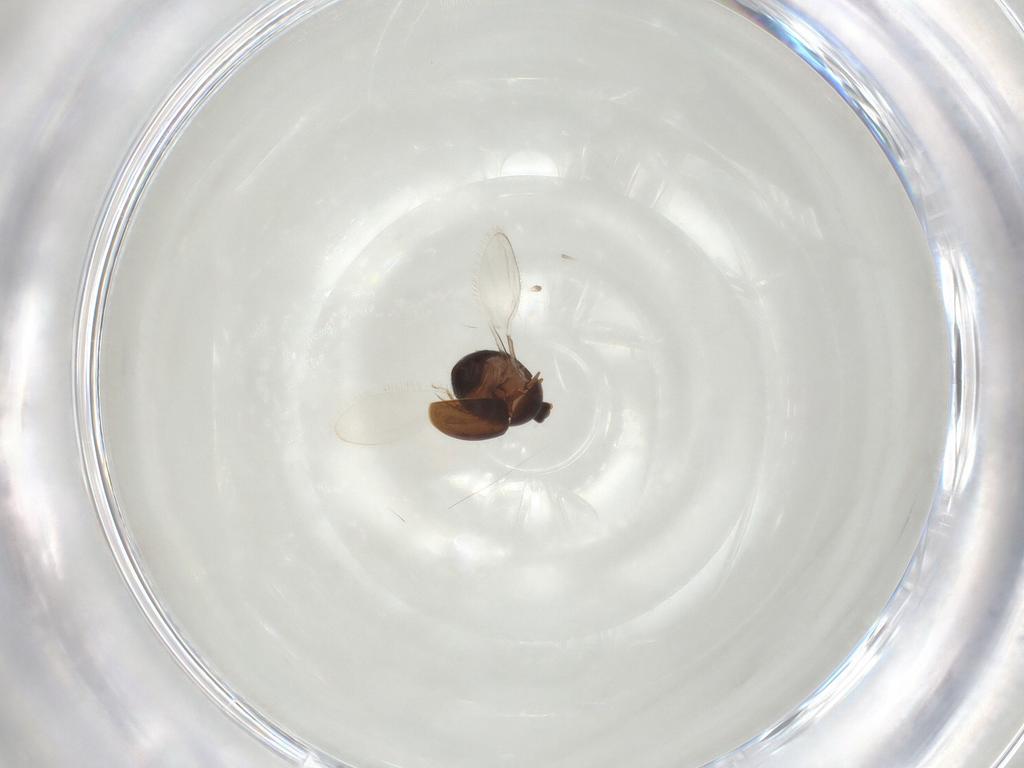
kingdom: Animalia
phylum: Arthropoda
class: Insecta
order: Coleoptera
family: Corylophidae
